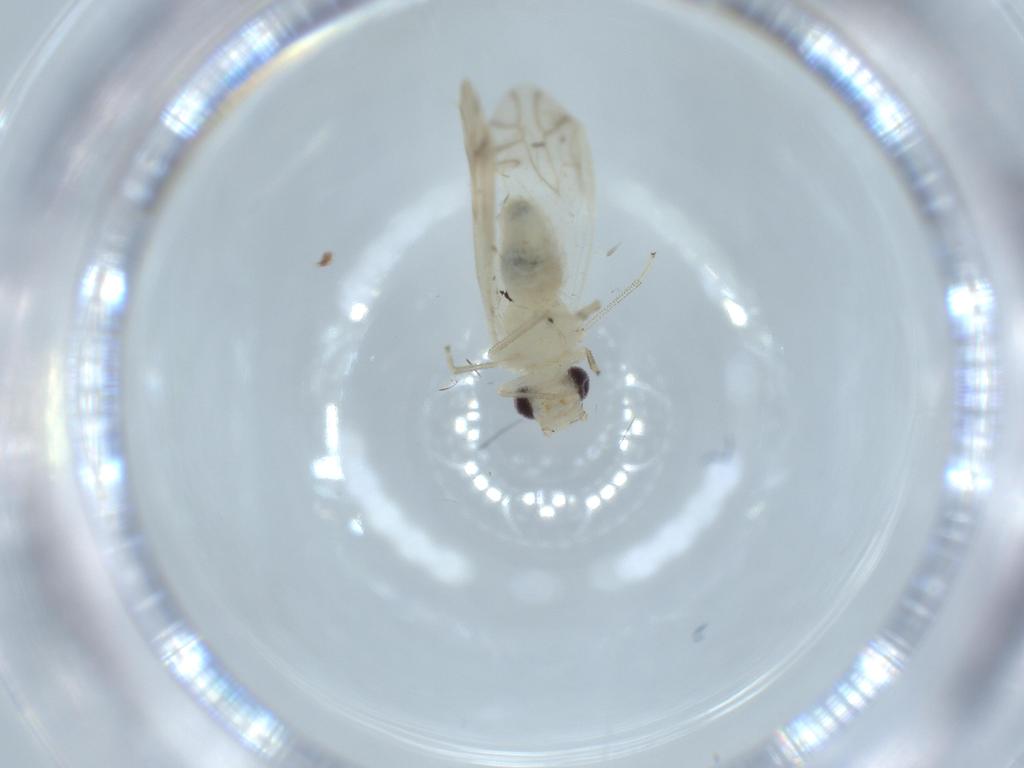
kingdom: Animalia
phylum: Arthropoda
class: Insecta
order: Psocodea
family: Caeciliusidae
